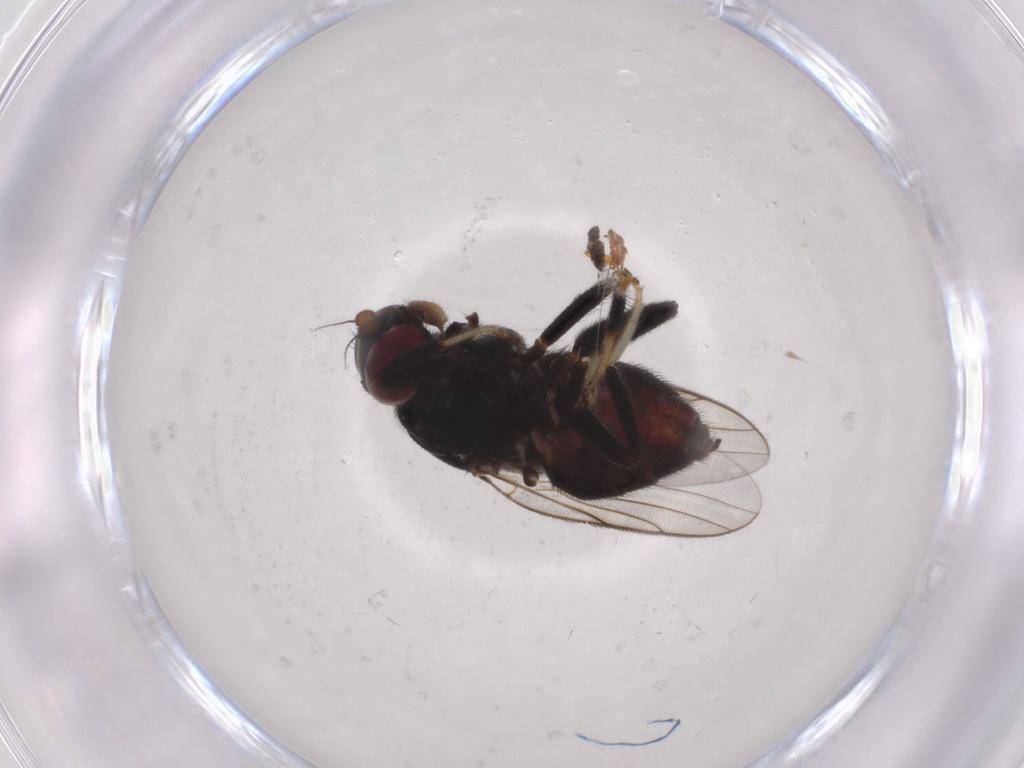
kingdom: Animalia
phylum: Arthropoda
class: Insecta
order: Diptera
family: Chloropidae
